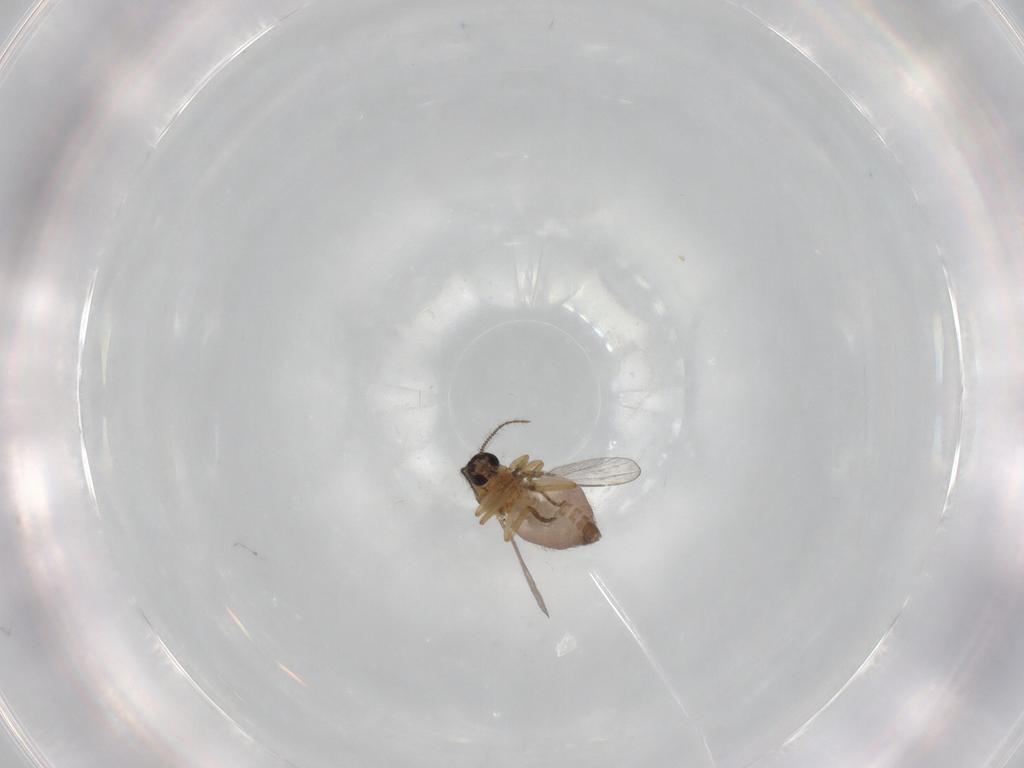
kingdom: Animalia
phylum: Arthropoda
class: Insecta
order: Diptera
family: Ceratopogonidae
